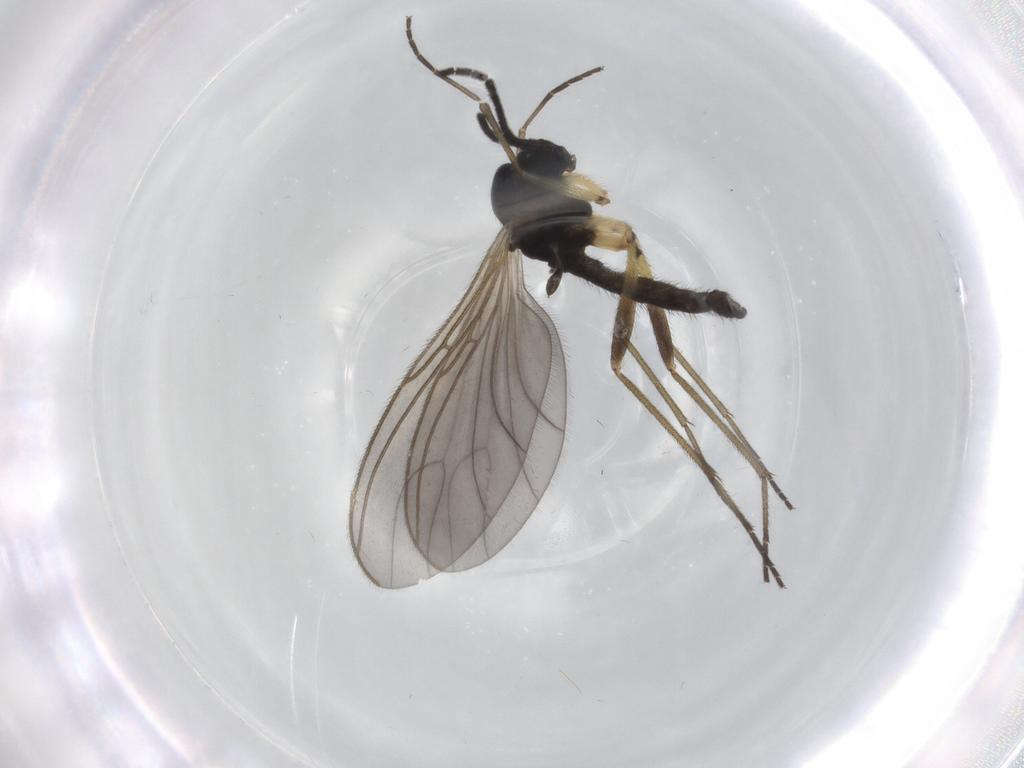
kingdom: Animalia
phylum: Arthropoda
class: Insecta
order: Diptera
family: Sciaridae
